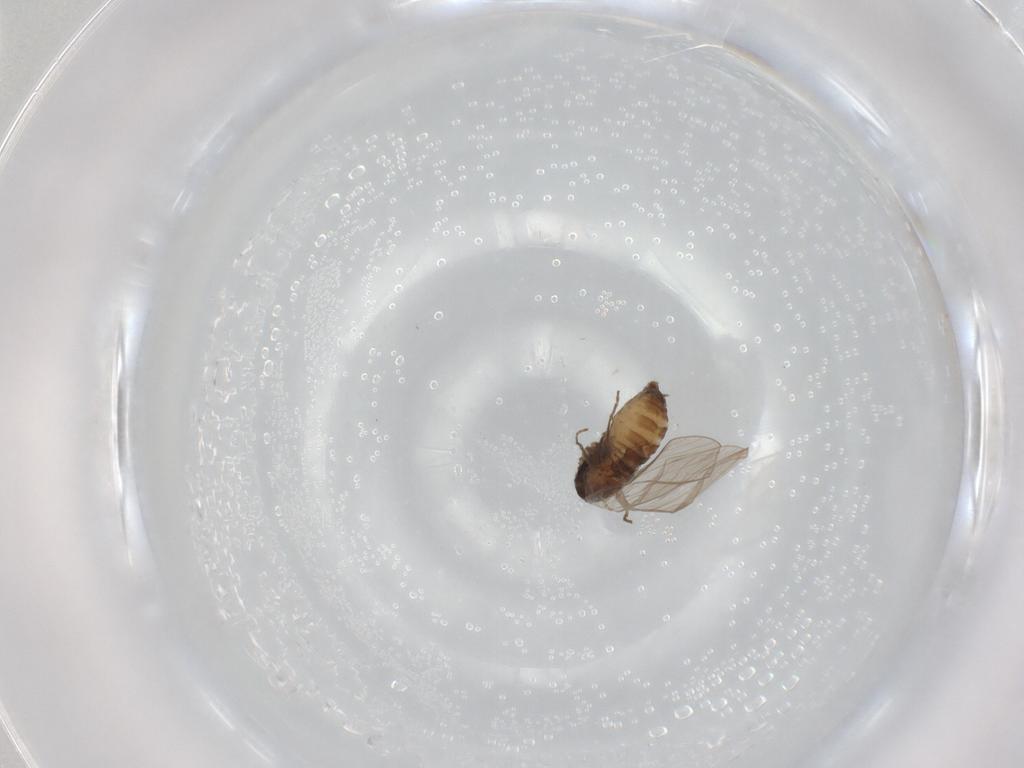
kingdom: Animalia
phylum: Arthropoda
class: Insecta
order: Diptera
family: Psychodidae
